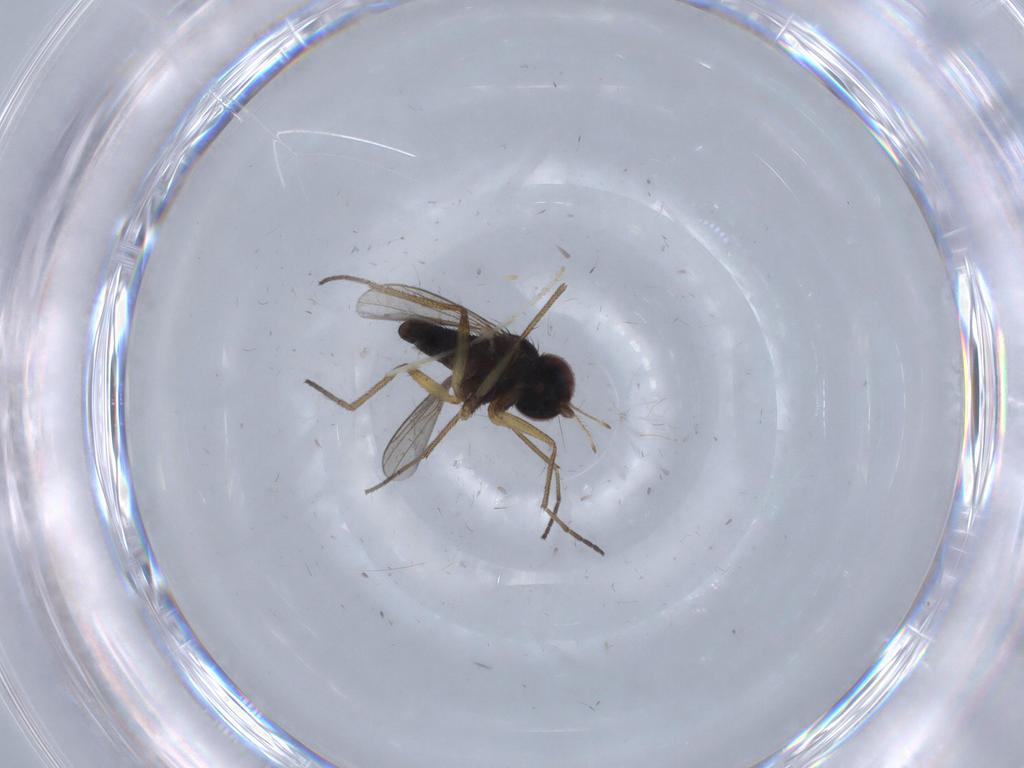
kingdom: Animalia
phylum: Arthropoda
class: Insecta
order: Diptera
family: Dolichopodidae
